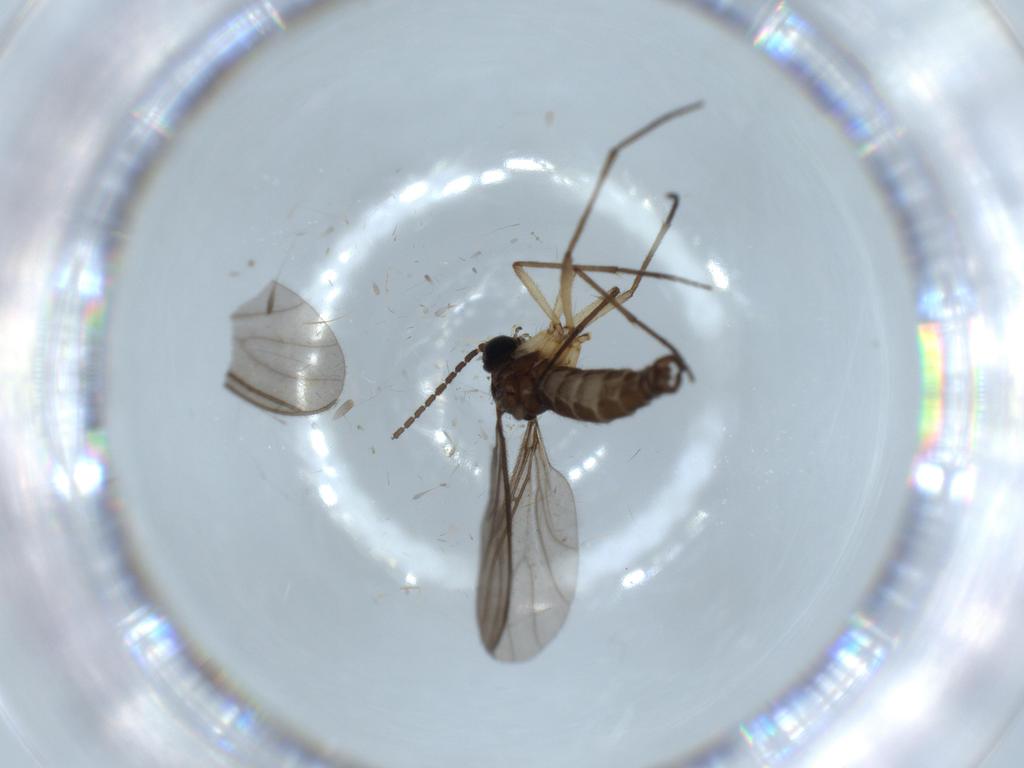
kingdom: Animalia
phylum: Arthropoda
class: Insecta
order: Diptera
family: Sciaridae
